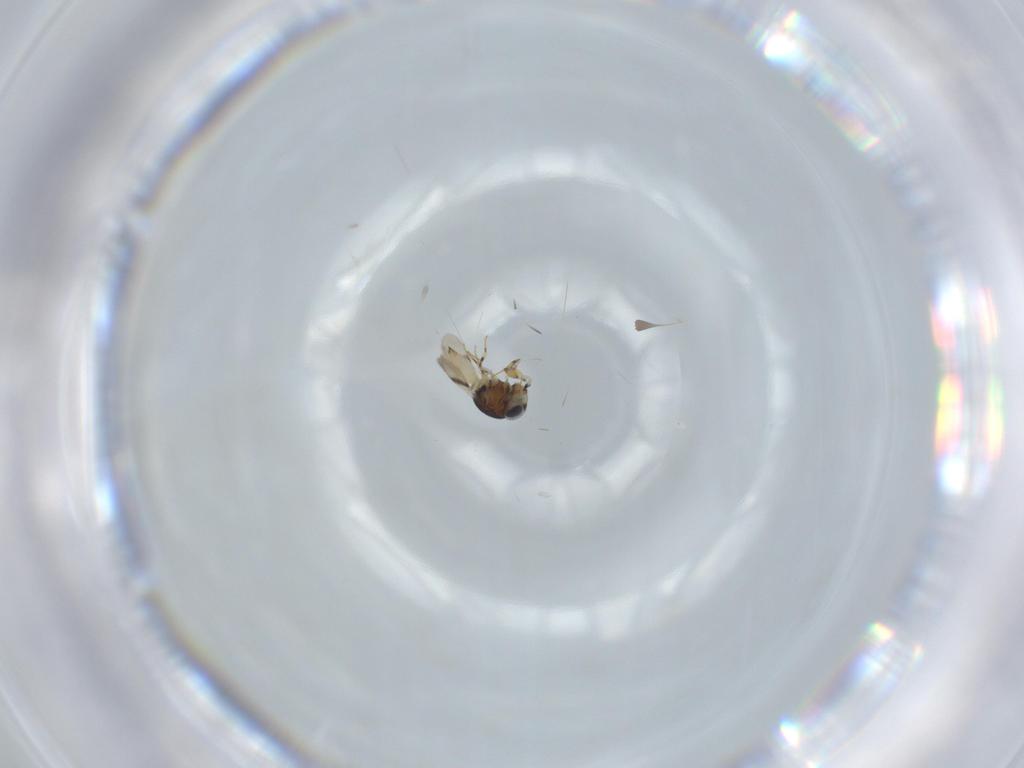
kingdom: Animalia
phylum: Arthropoda
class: Insecta
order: Hymenoptera
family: Scelionidae
